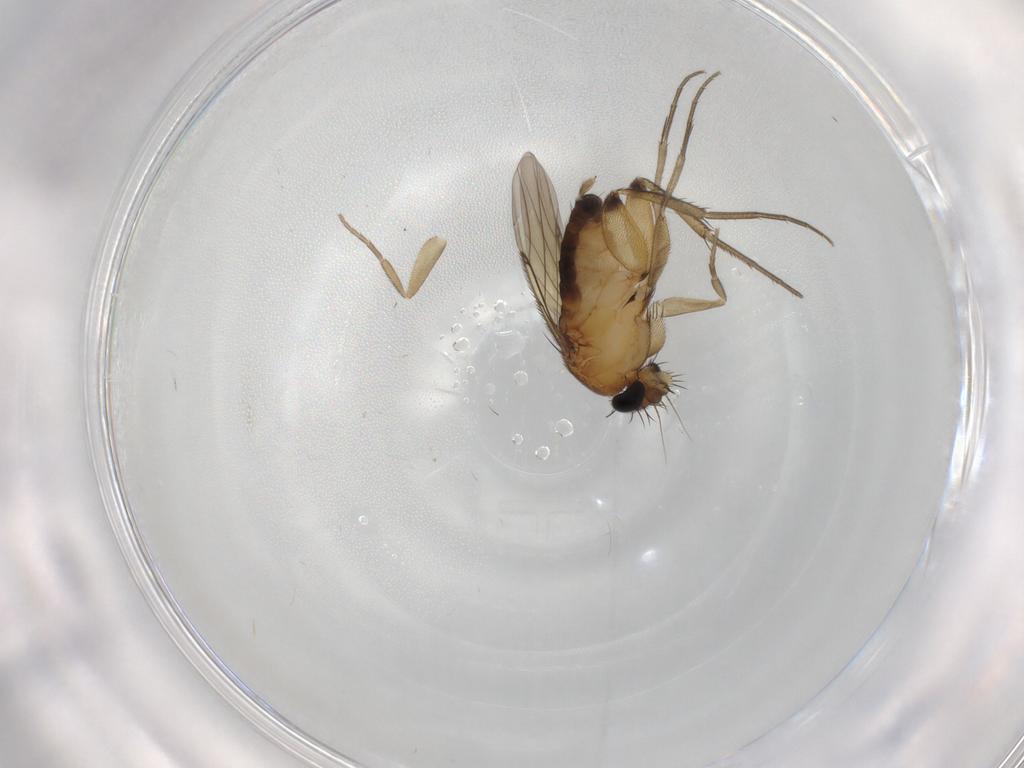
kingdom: Animalia
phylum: Arthropoda
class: Insecta
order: Diptera
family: Phoridae
